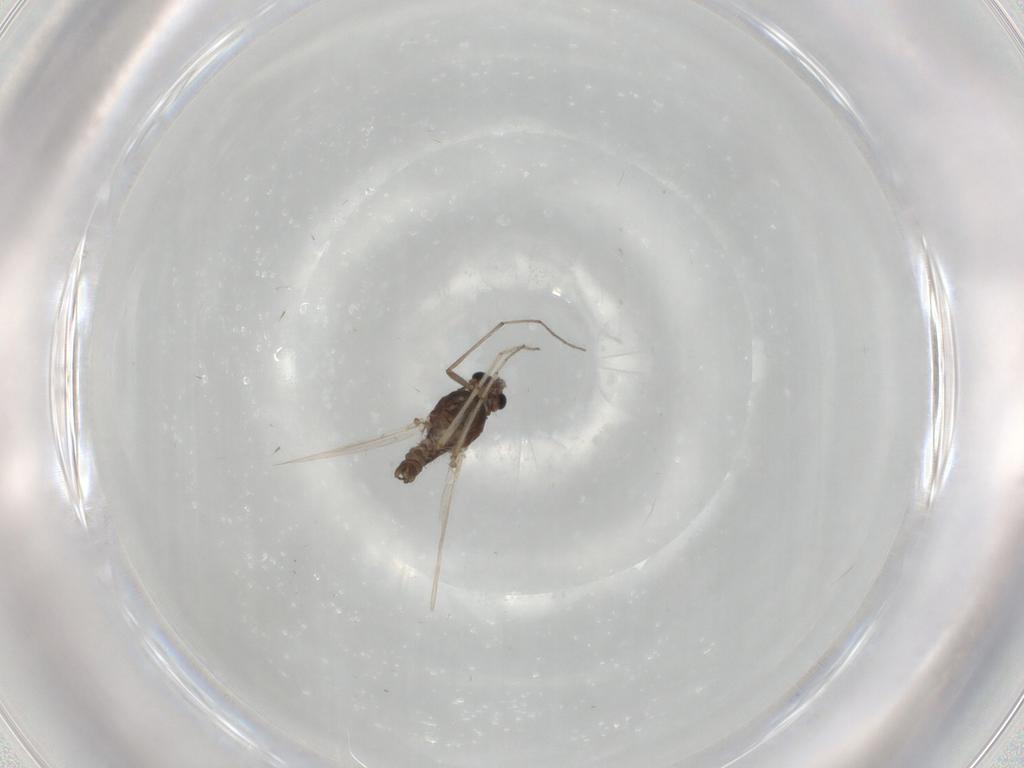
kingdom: Animalia
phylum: Arthropoda
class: Insecta
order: Diptera
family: Chironomidae
